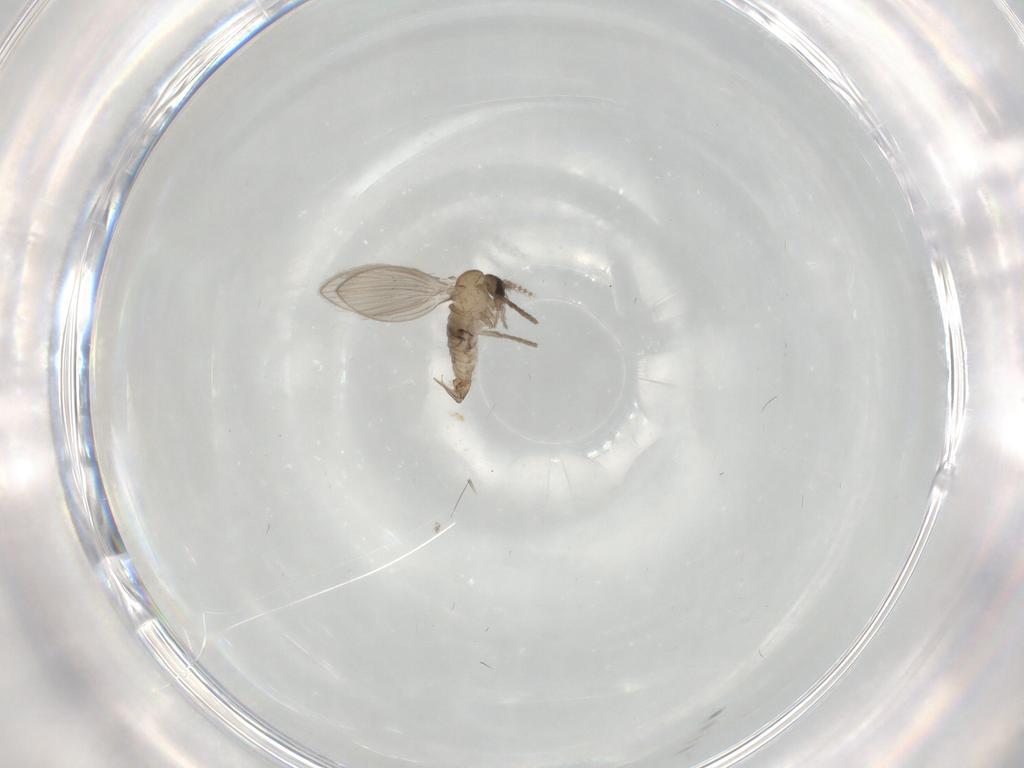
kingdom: Animalia
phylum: Arthropoda
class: Insecta
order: Diptera
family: Psychodidae
